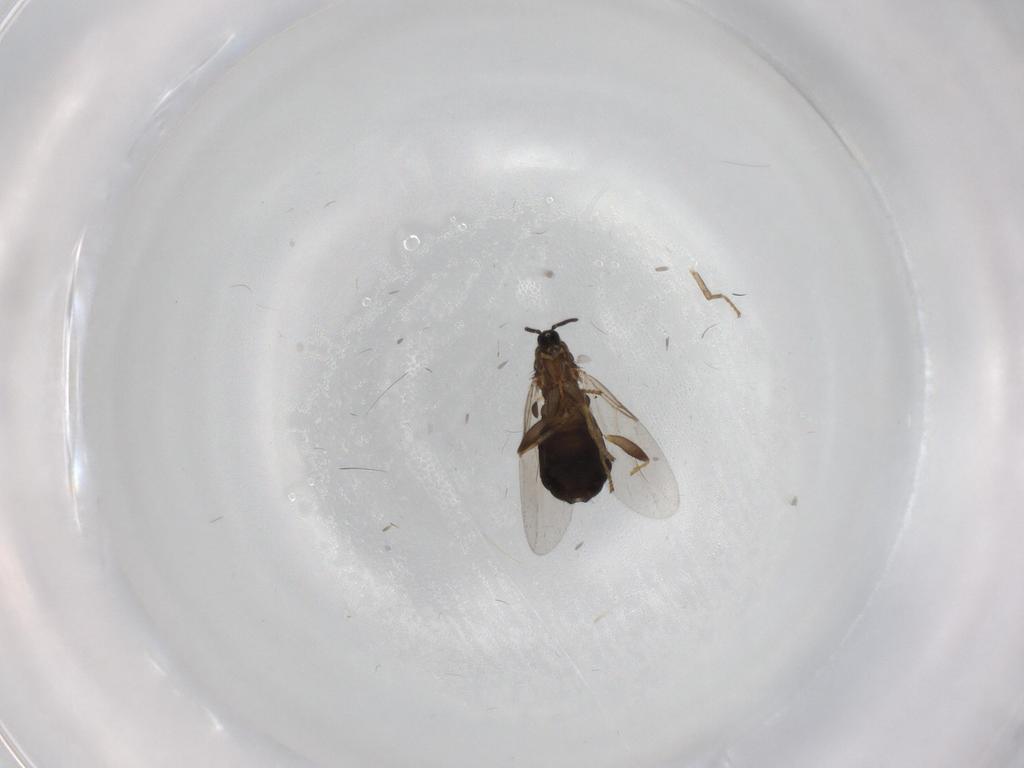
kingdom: Animalia
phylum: Arthropoda
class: Insecta
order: Diptera
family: Scatopsidae
